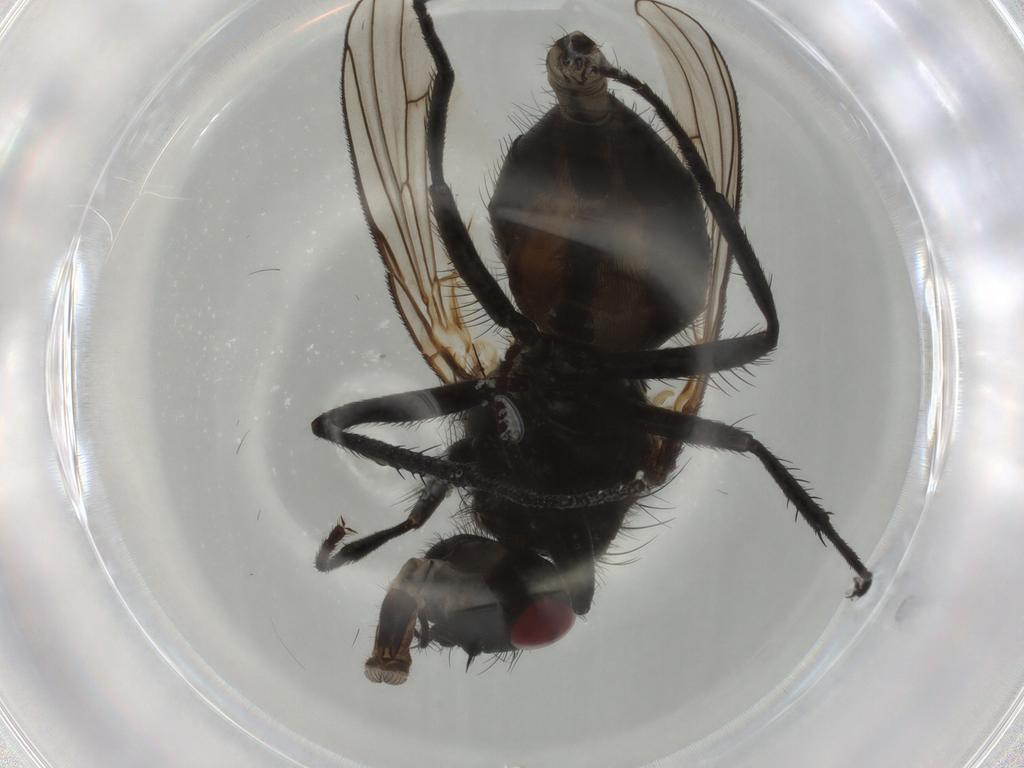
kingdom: Animalia
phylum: Arthropoda
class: Insecta
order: Diptera
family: Muscidae
